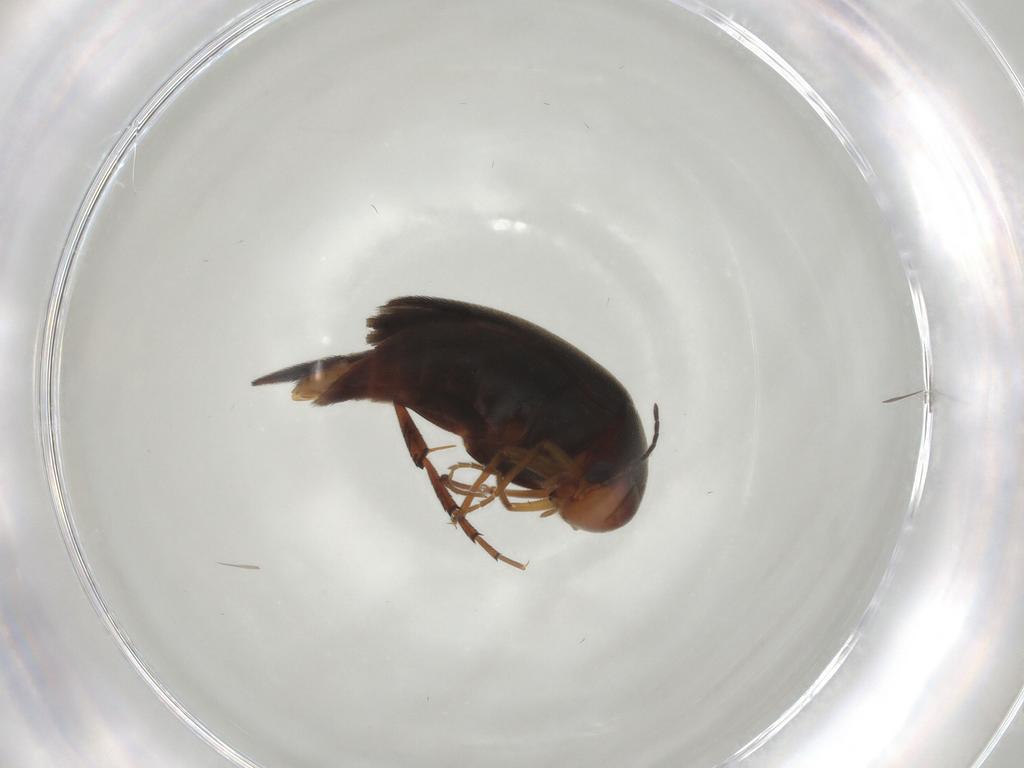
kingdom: Animalia
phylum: Arthropoda
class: Insecta
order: Coleoptera
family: Mordellidae
